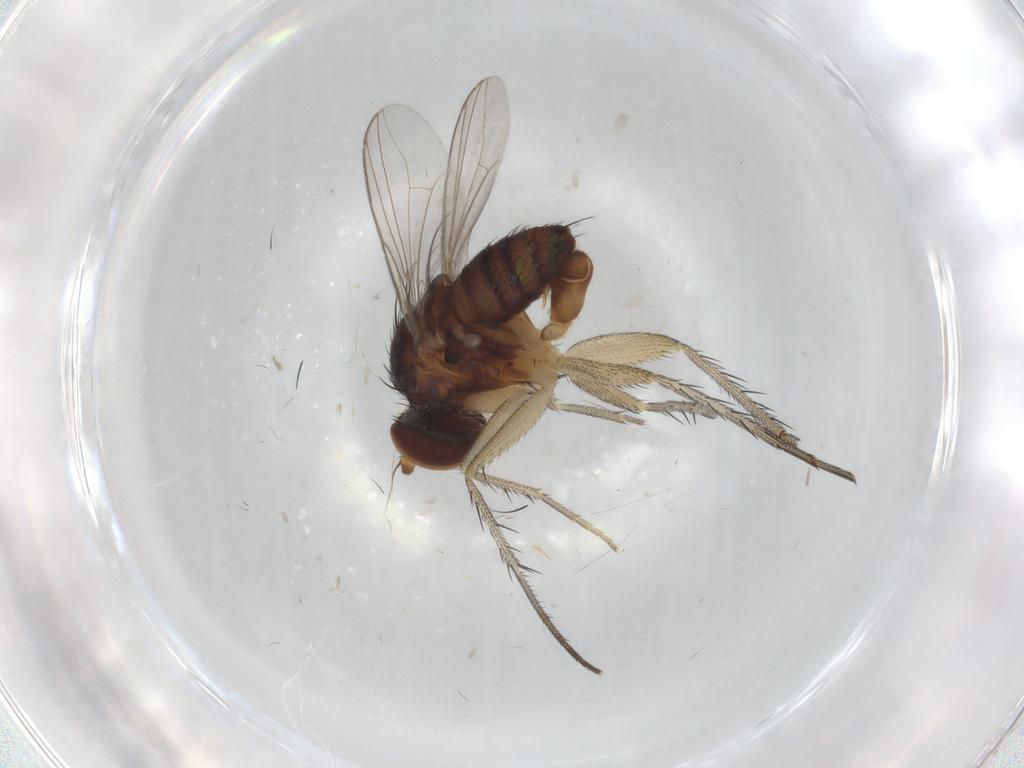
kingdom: Animalia
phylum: Arthropoda
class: Insecta
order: Diptera
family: Dolichopodidae
